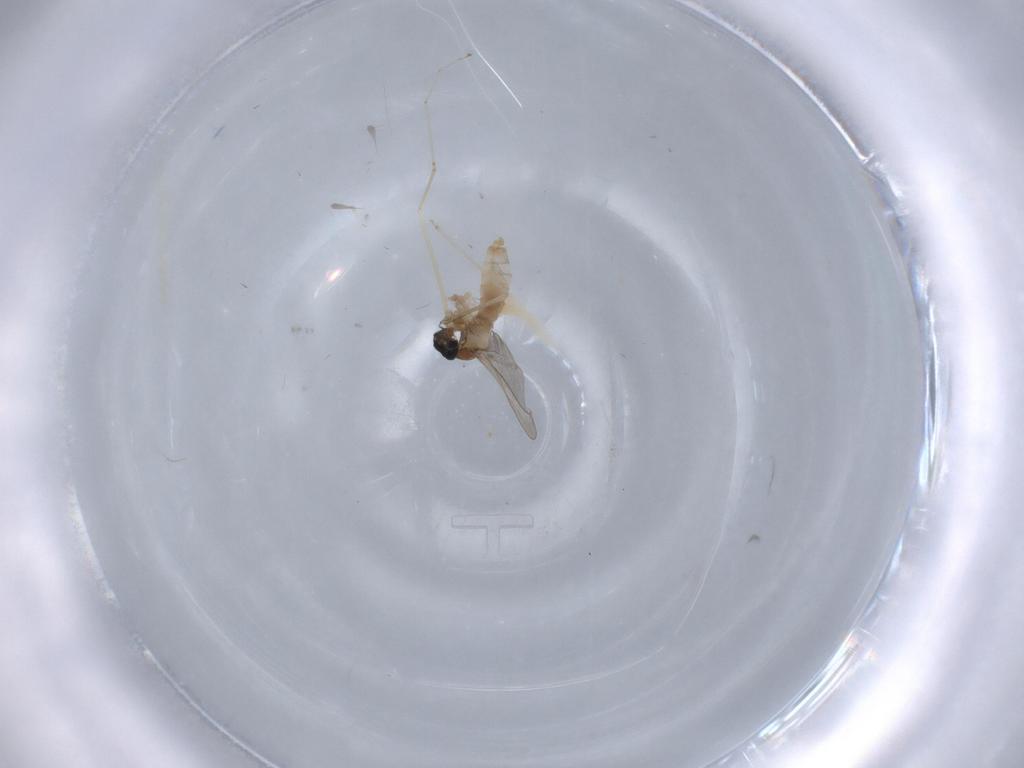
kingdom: Animalia
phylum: Arthropoda
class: Insecta
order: Diptera
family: Cecidomyiidae
